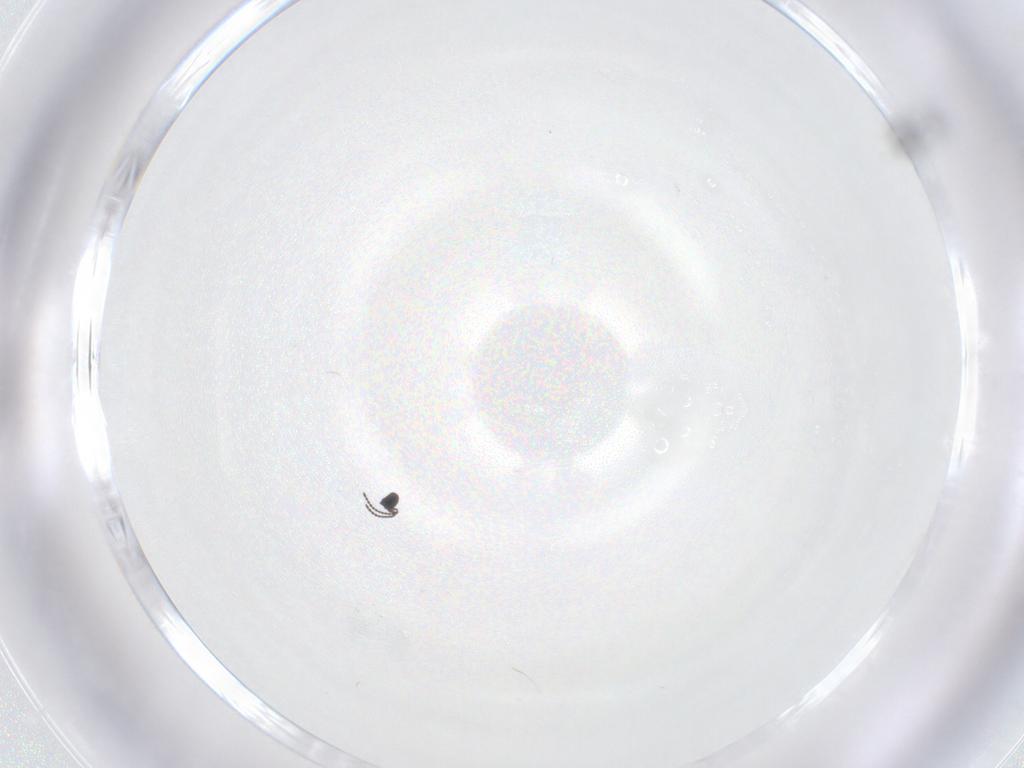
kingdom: Animalia
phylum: Arthropoda
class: Insecta
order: Hymenoptera
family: Scelionidae
